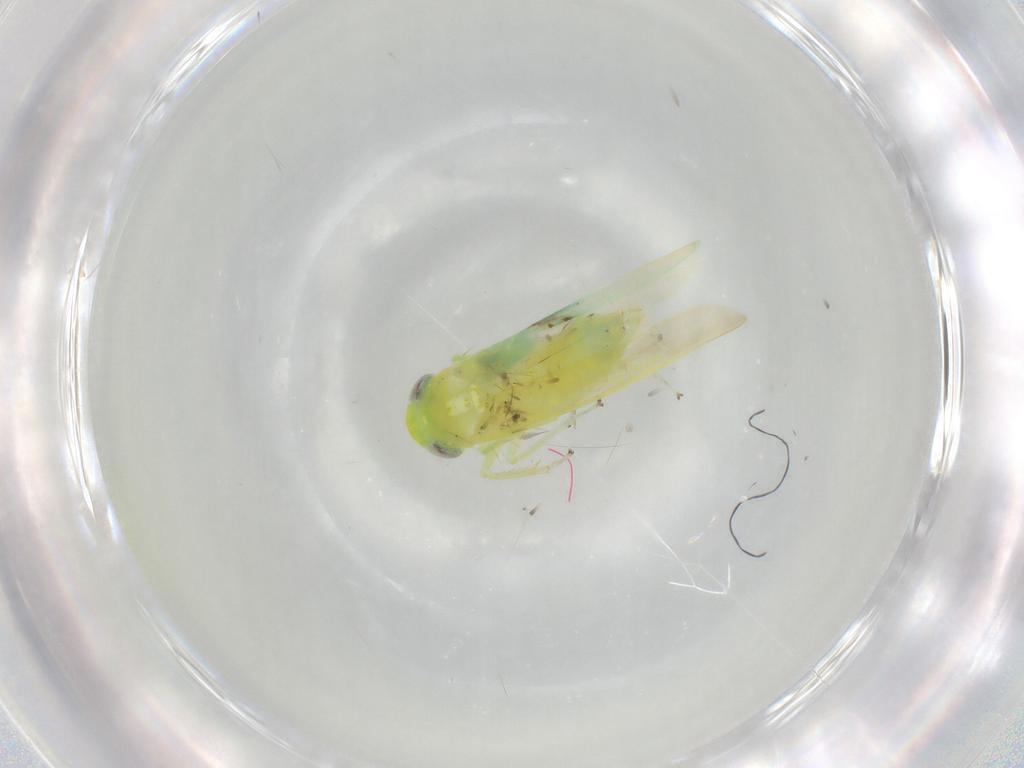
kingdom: Animalia
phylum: Arthropoda
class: Insecta
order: Hemiptera
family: Cicadellidae
